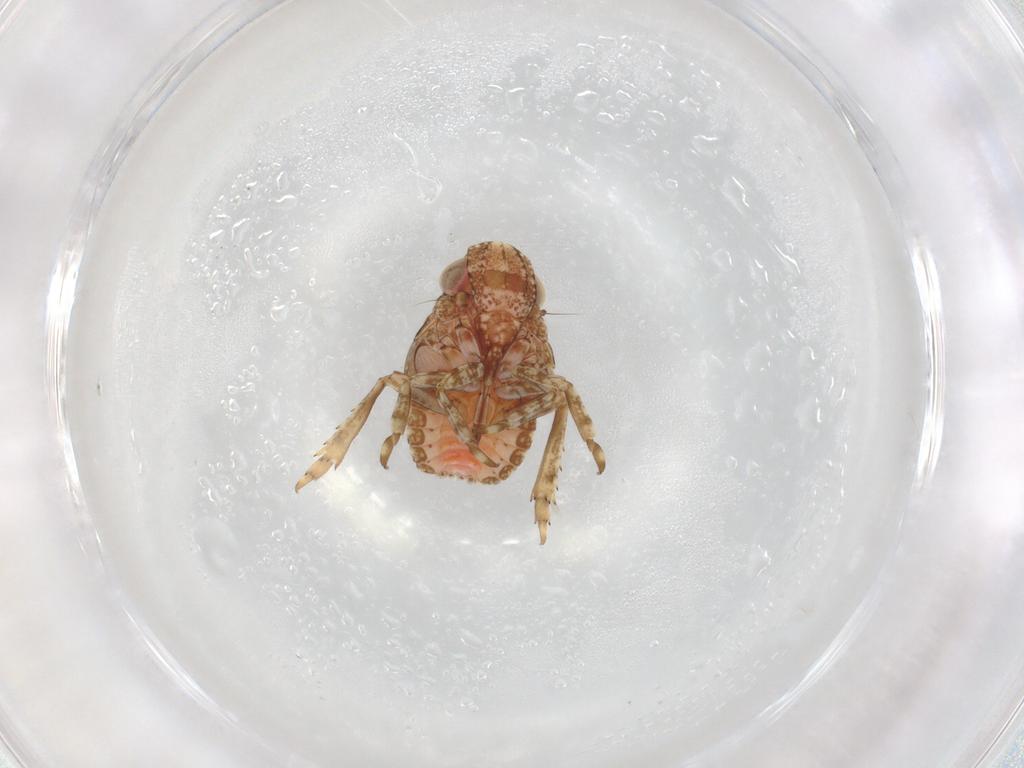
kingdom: Animalia
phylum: Arthropoda
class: Insecta
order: Hemiptera
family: Nogodinidae
